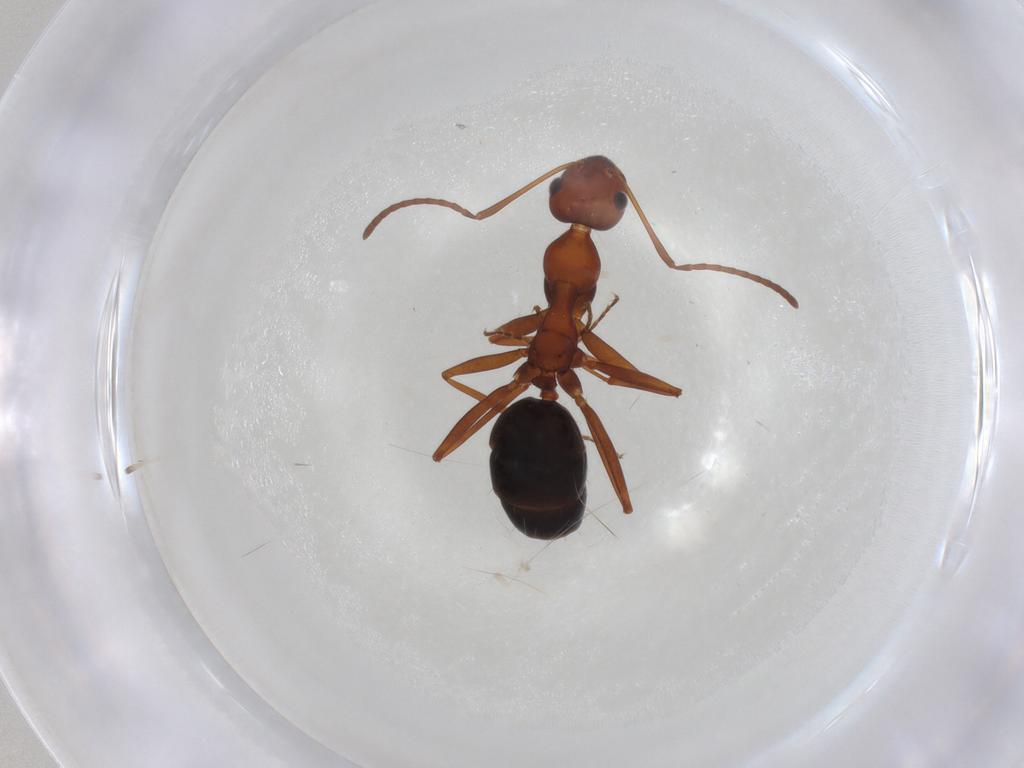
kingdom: Animalia
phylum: Arthropoda
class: Insecta
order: Hymenoptera
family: Formicidae
